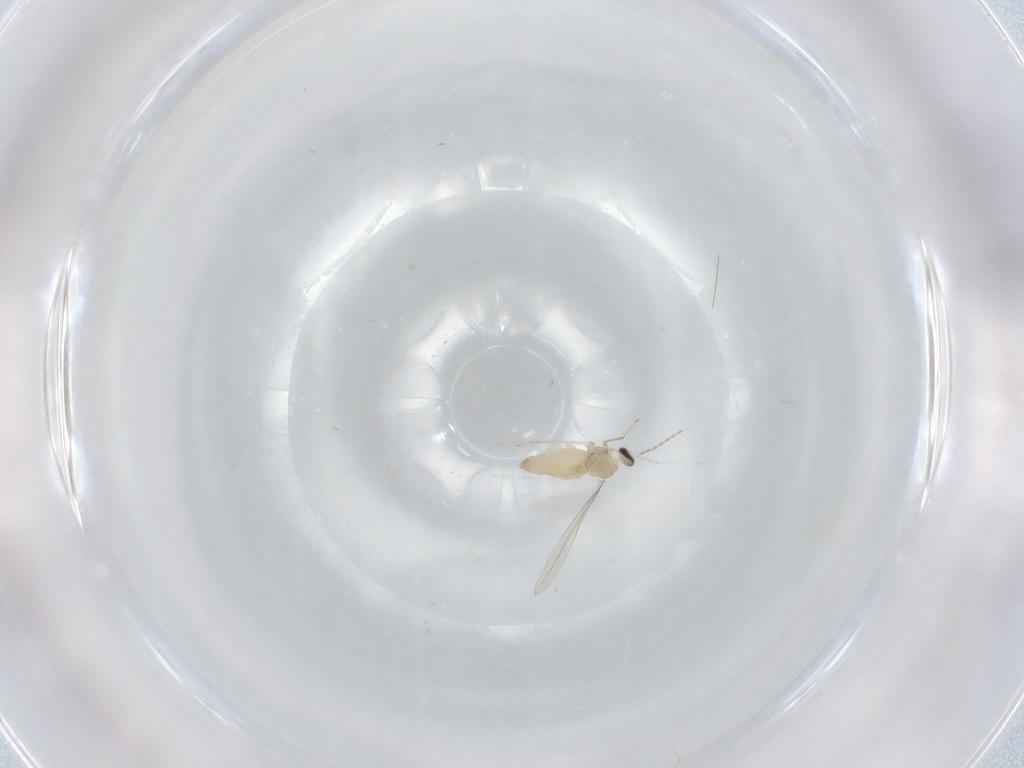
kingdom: Animalia
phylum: Arthropoda
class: Insecta
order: Diptera
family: Cecidomyiidae
